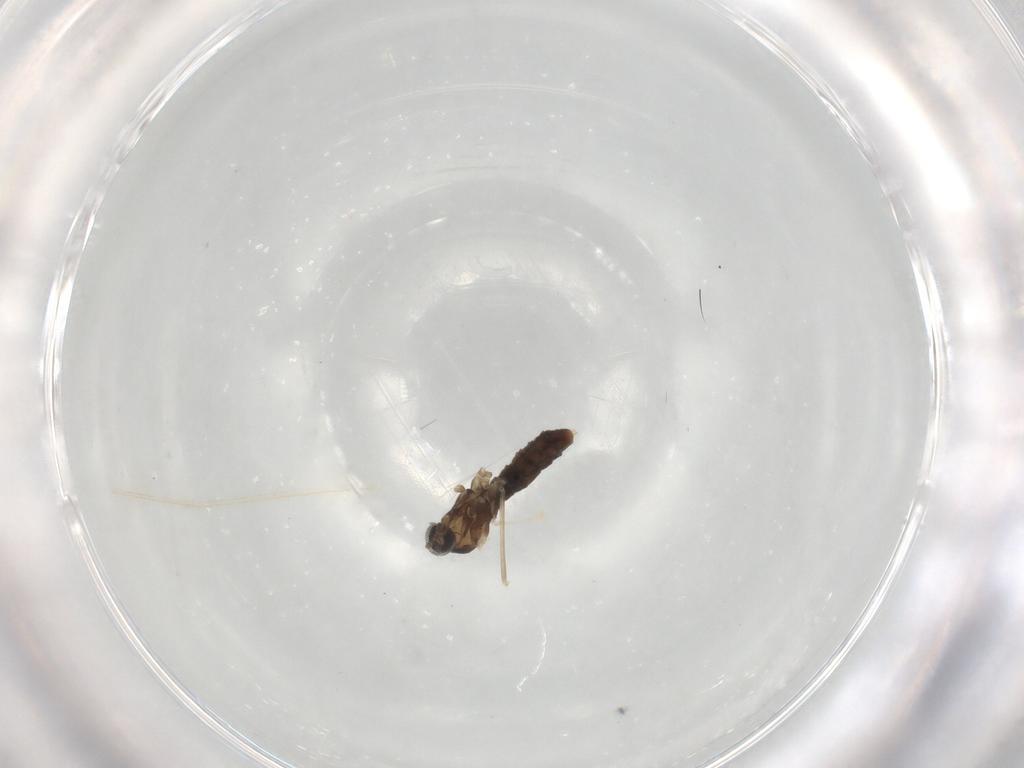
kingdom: Animalia
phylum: Arthropoda
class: Insecta
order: Diptera
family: Cecidomyiidae
